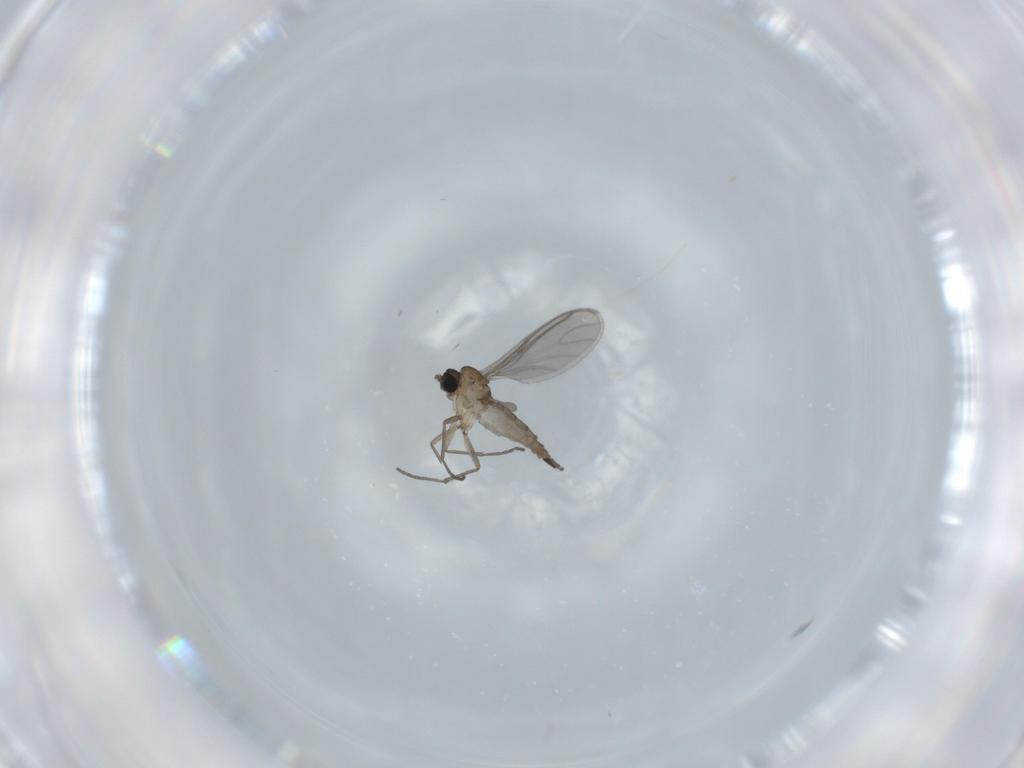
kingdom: Animalia
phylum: Arthropoda
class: Insecta
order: Diptera
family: Sciaridae
